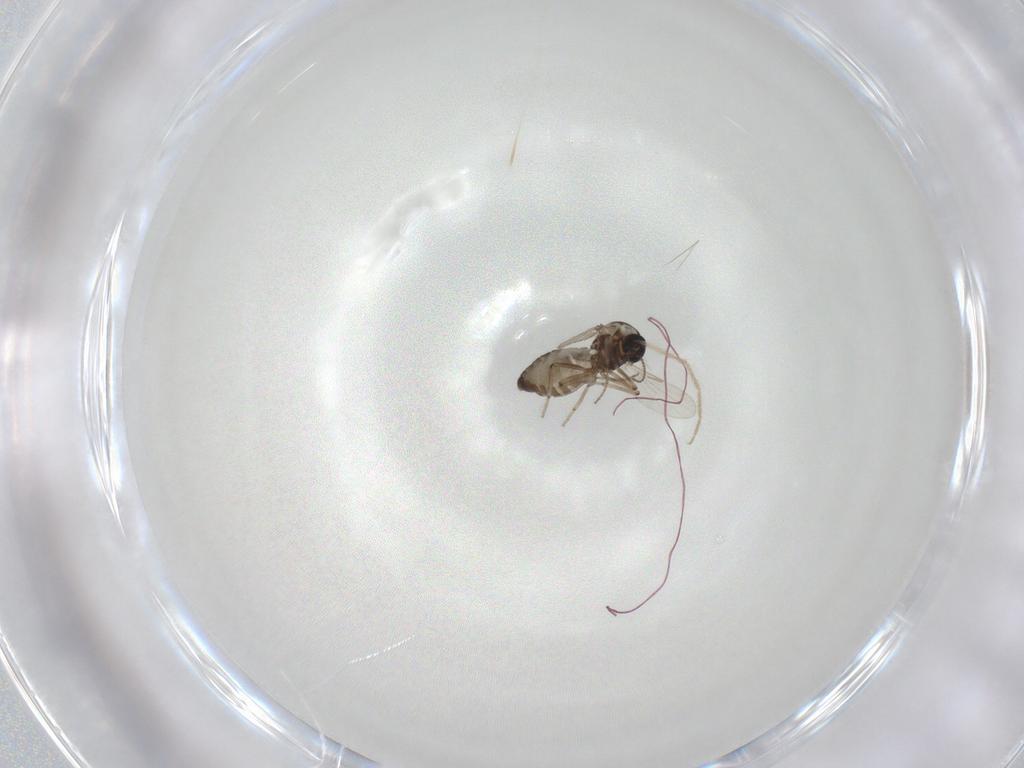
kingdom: Animalia
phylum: Arthropoda
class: Insecta
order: Diptera
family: Ceratopogonidae
